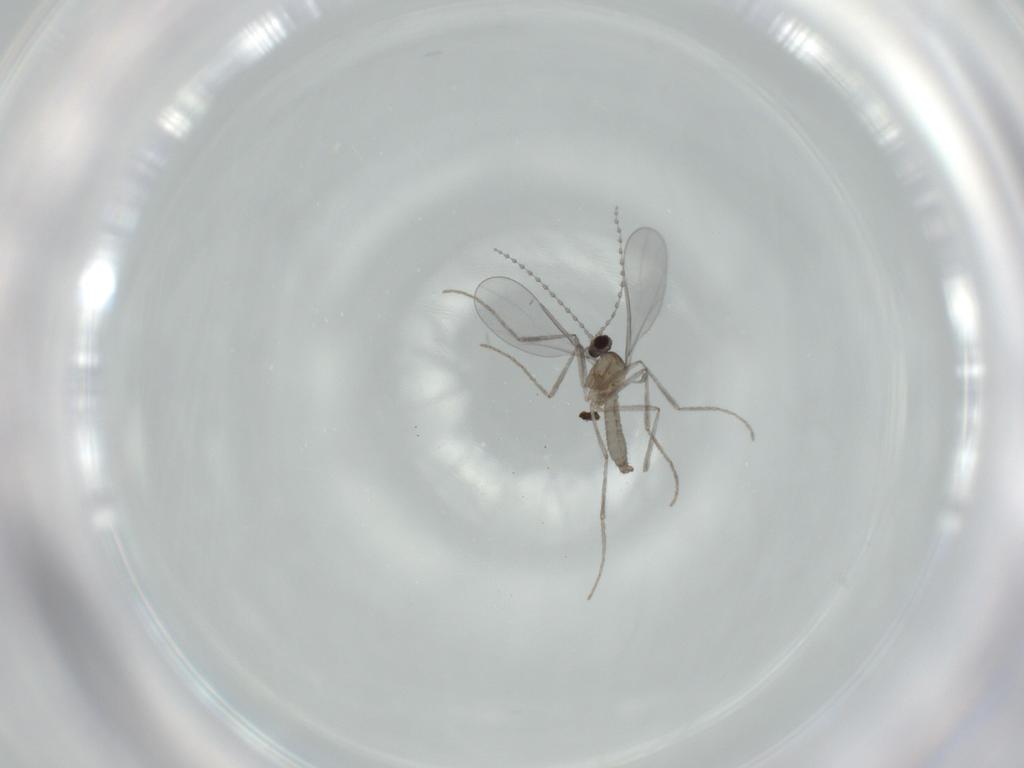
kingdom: Animalia
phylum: Arthropoda
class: Insecta
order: Diptera
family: Cecidomyiidae
